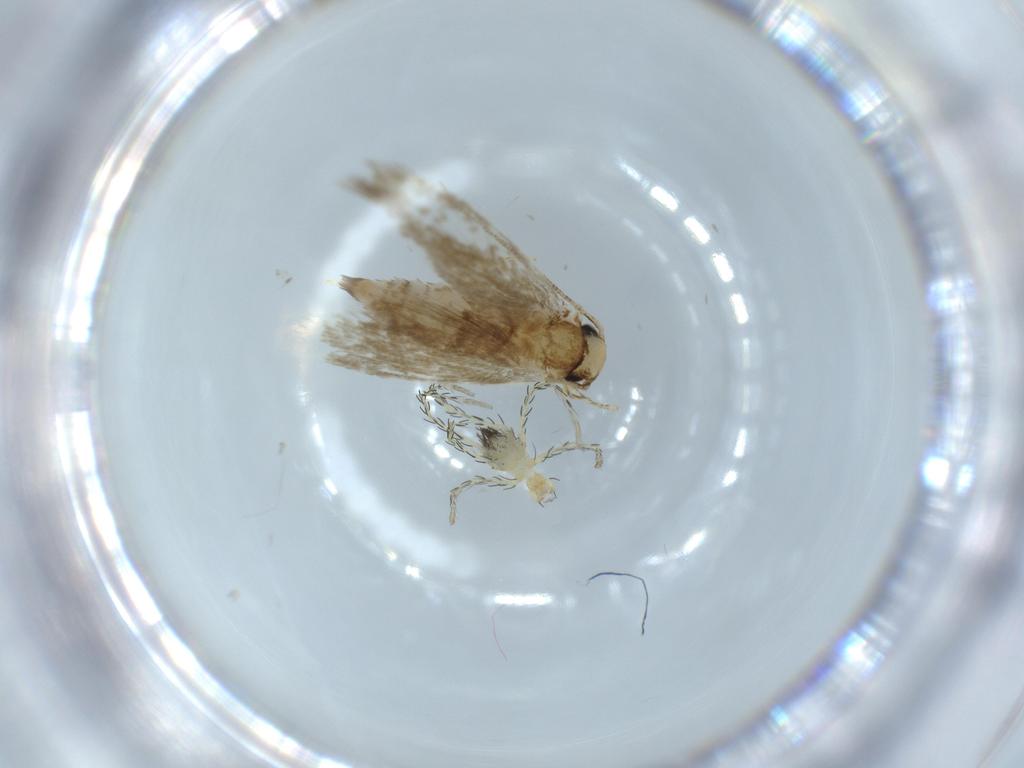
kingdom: Animalia
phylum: Arthropoda
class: Insecta
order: Lepidoptera
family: Tineidae
